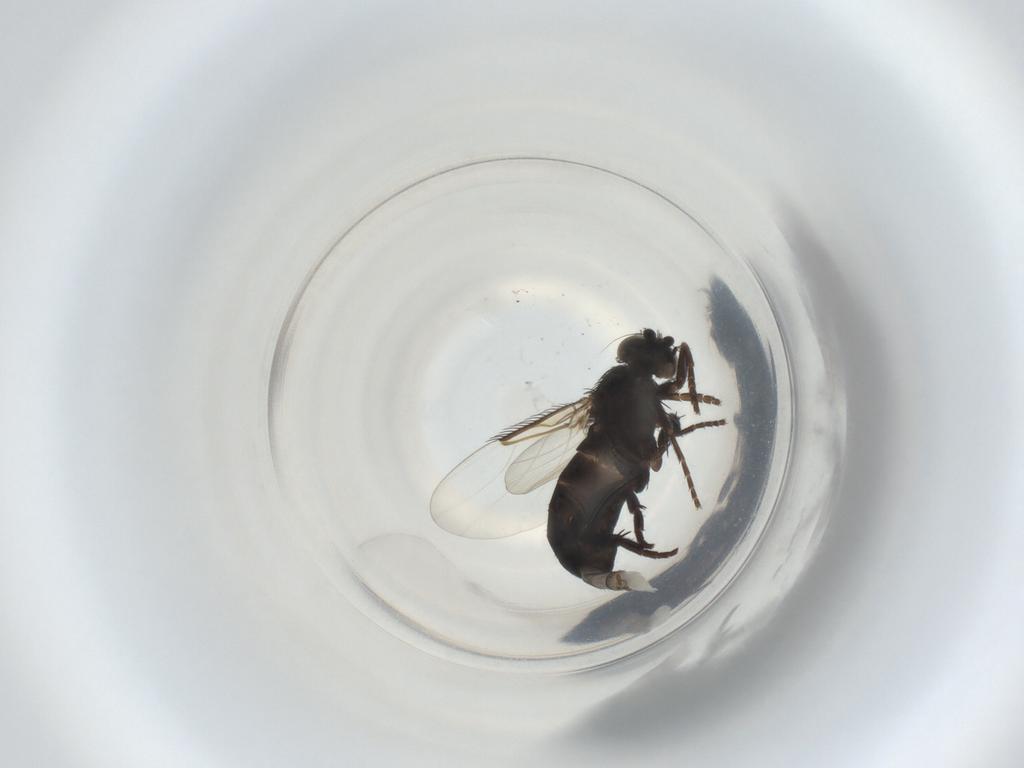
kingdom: Animalia
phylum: Arthropoda
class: Insecta
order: Diptera
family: Phoridae
